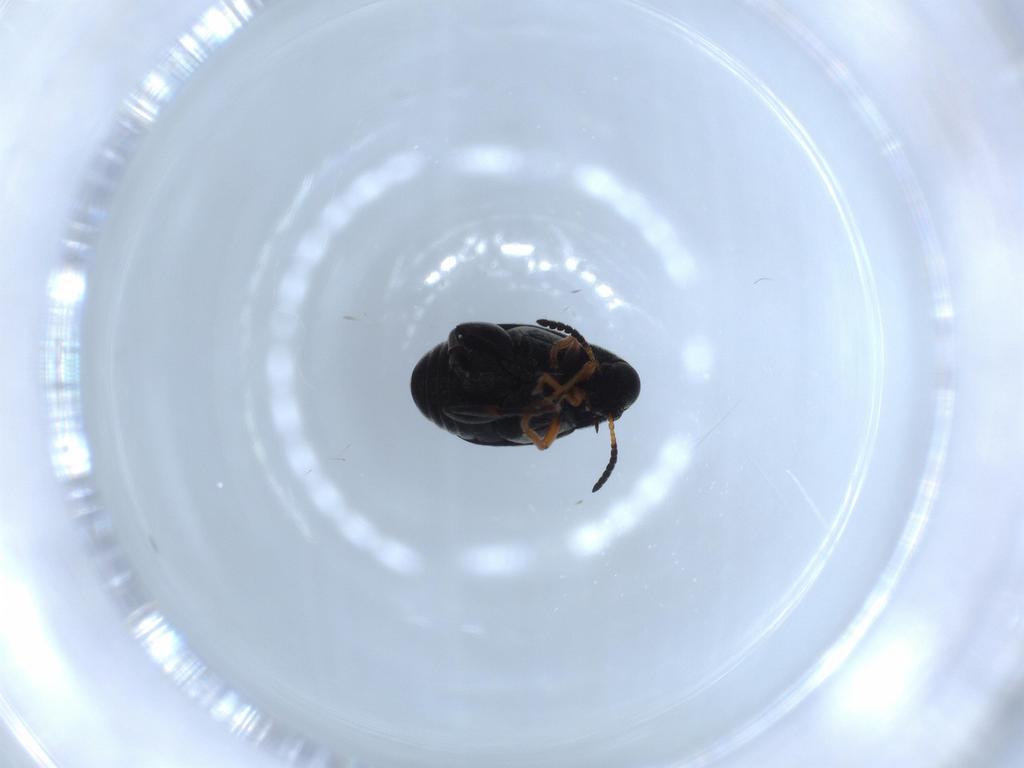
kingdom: Animalia
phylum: Arthropoda
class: Insecta
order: Coleoptera
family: Chrysomelidae
